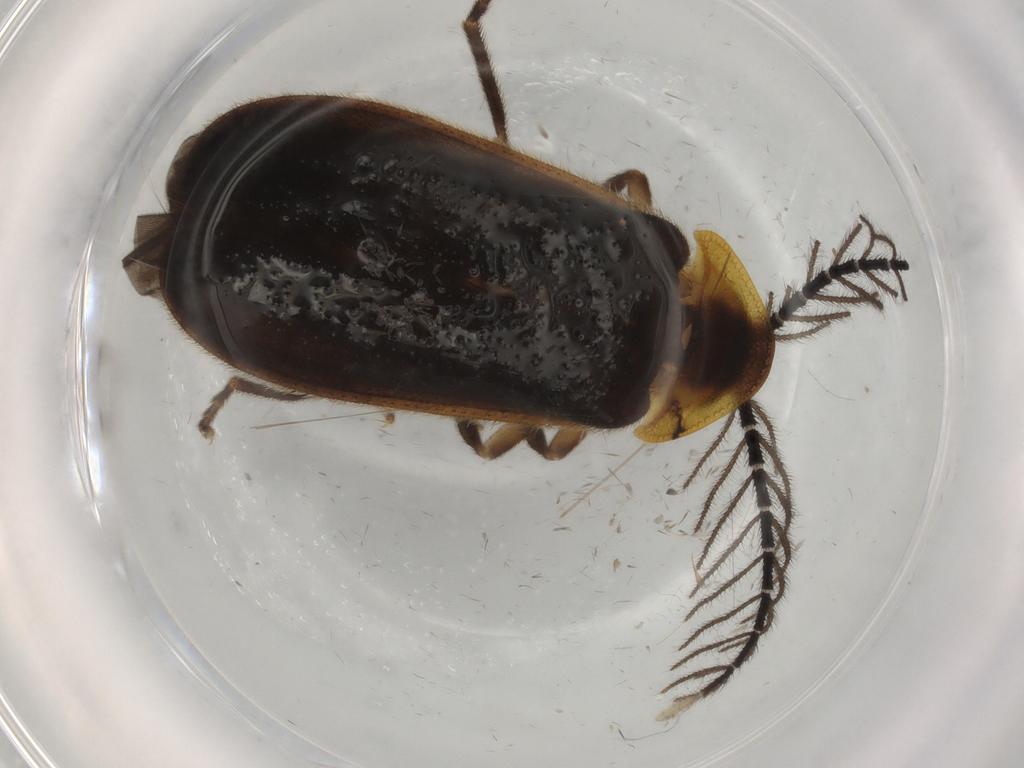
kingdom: Animalia
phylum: Arthropoda
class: Insecta
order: Coleoptera
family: Lampyridae
